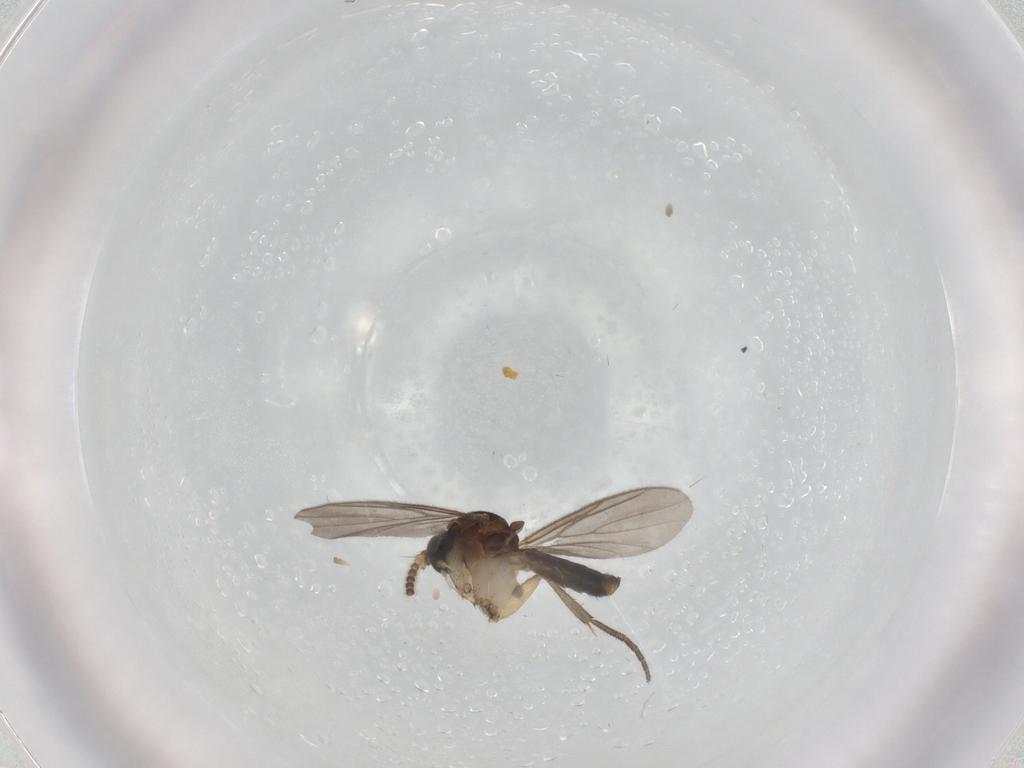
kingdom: Animalia
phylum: Arthropoda
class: Insecta
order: Diptera
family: Mycetophilidae
